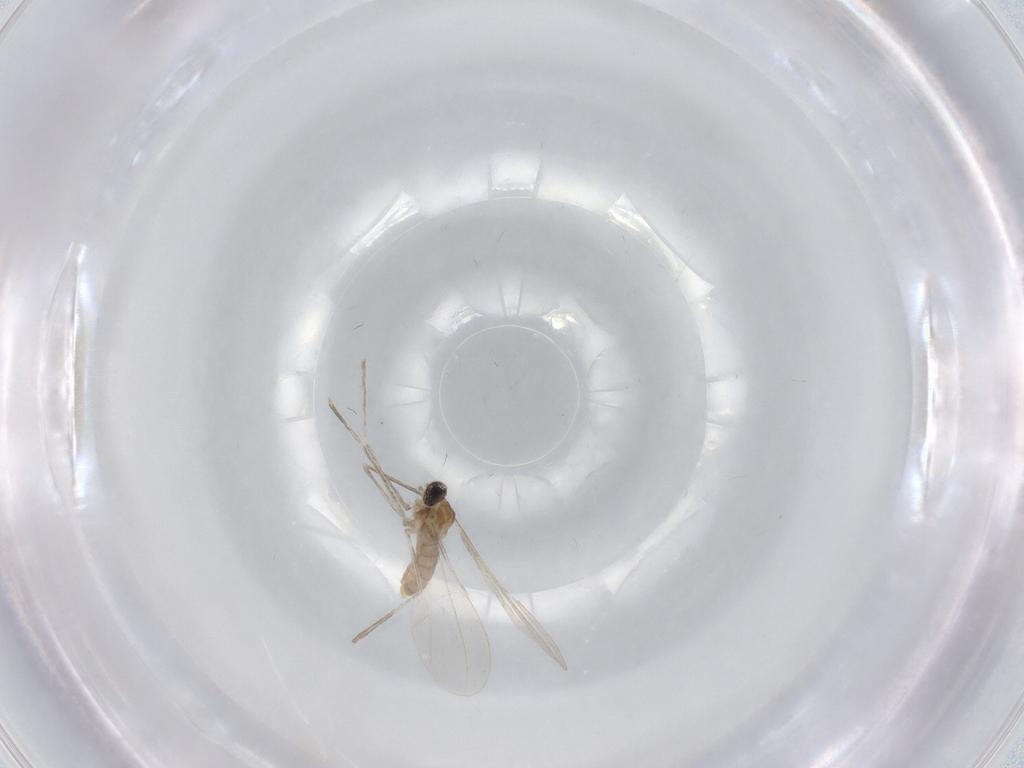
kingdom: Animalia
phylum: Arthropoda
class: Insecta
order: Diptera
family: Cecidomyiidae
